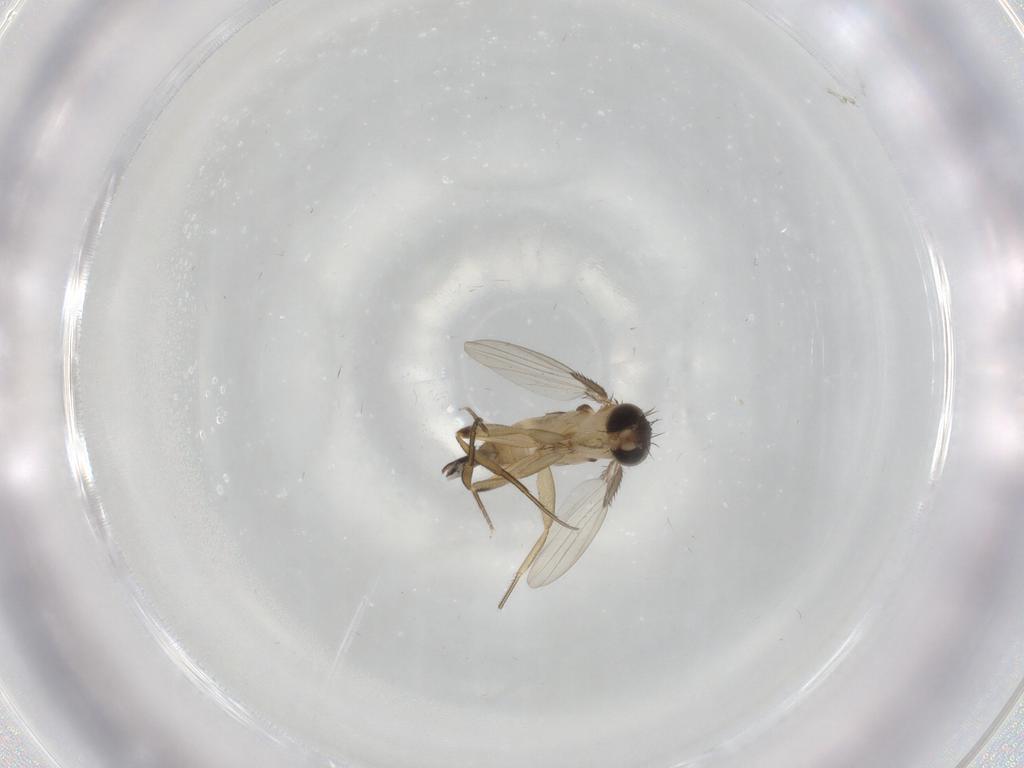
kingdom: Animalia
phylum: Arthropoda
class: Insecta
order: Diptera
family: Phoridae
